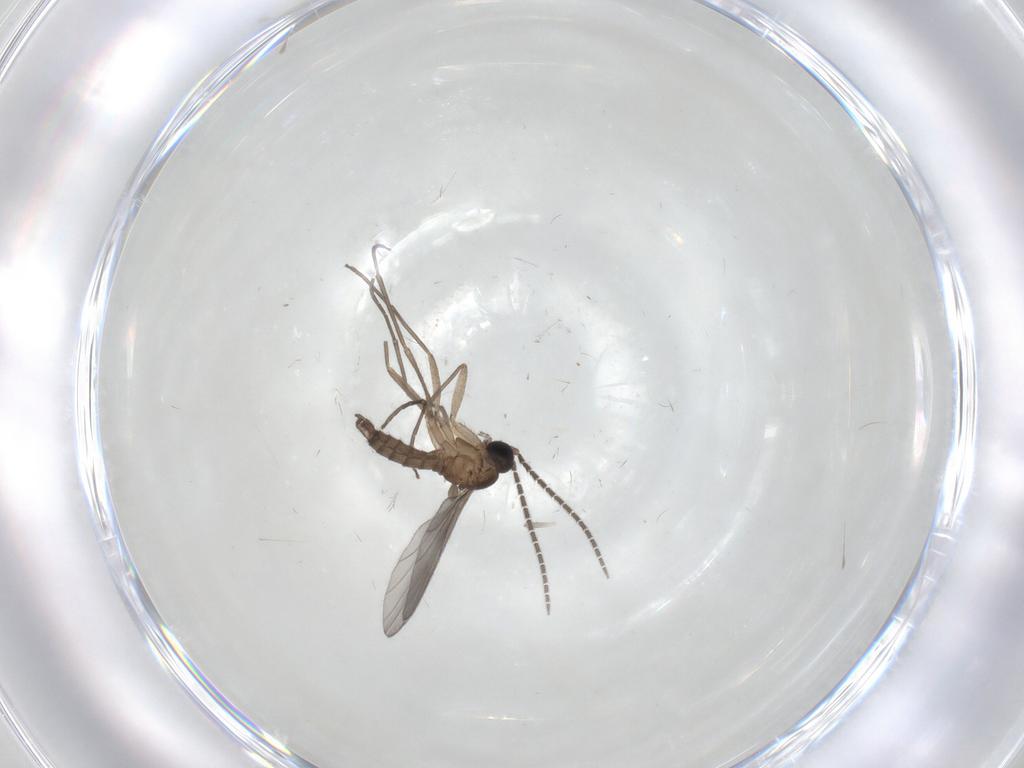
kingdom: Animalia
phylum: Arthropoda
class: Insecta
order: Diptera
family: Sciaridae
